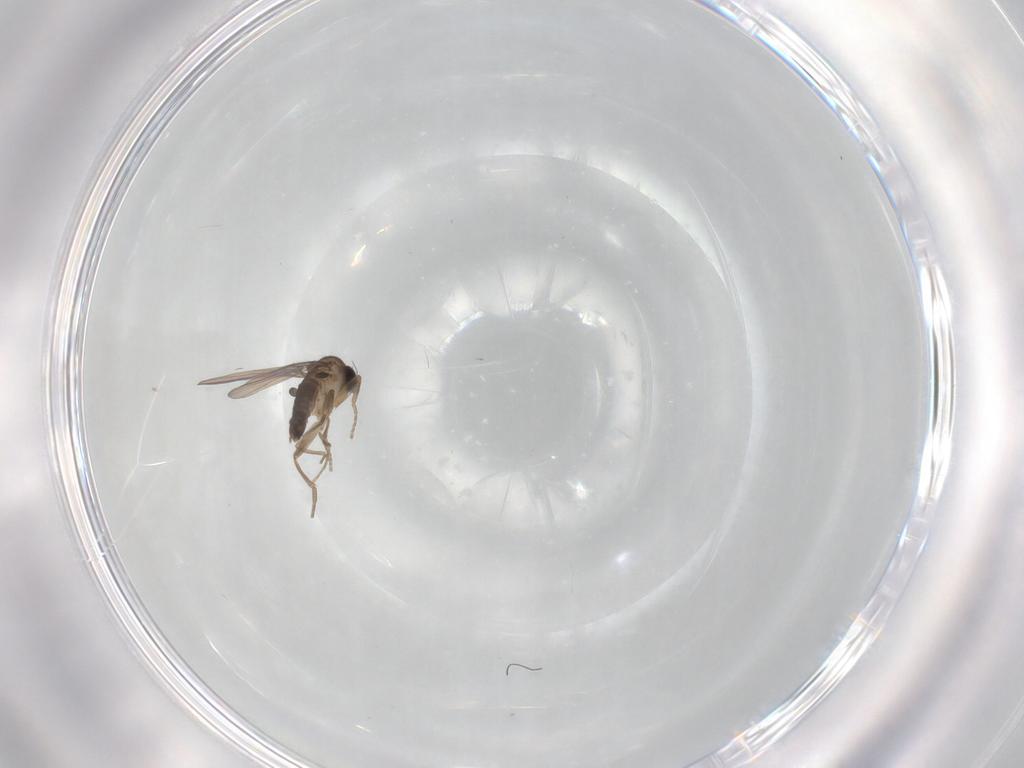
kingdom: Animalia
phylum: Arthropoda
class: Insecta
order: Diptera
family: Phoridae
